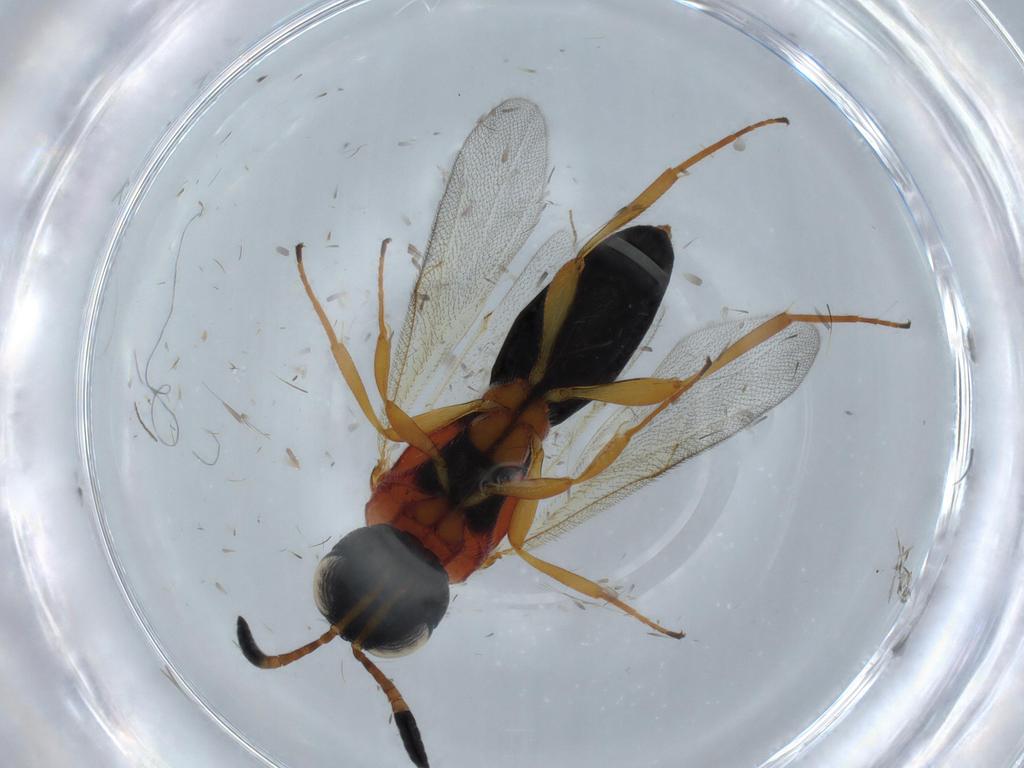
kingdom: Animalia
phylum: Arthropoda
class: Insecta
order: Hymenoptera
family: Scelionidae
